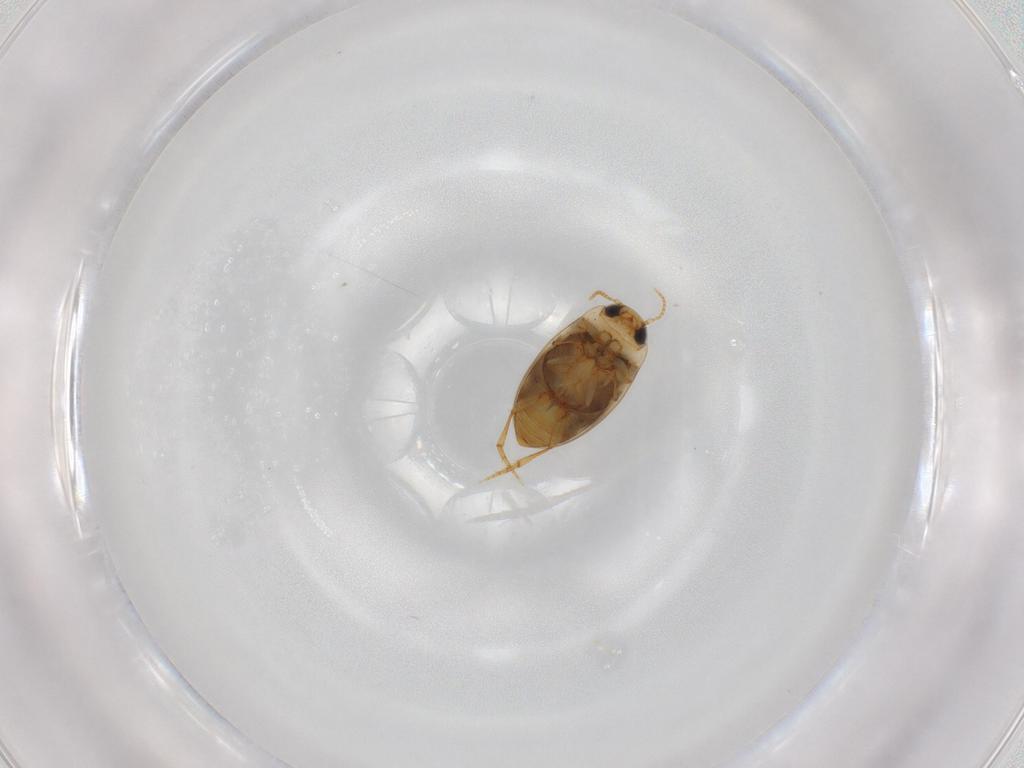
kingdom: Animalia
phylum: Arthropoda
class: Insecta
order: Coleoptera
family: Dytiscidae
